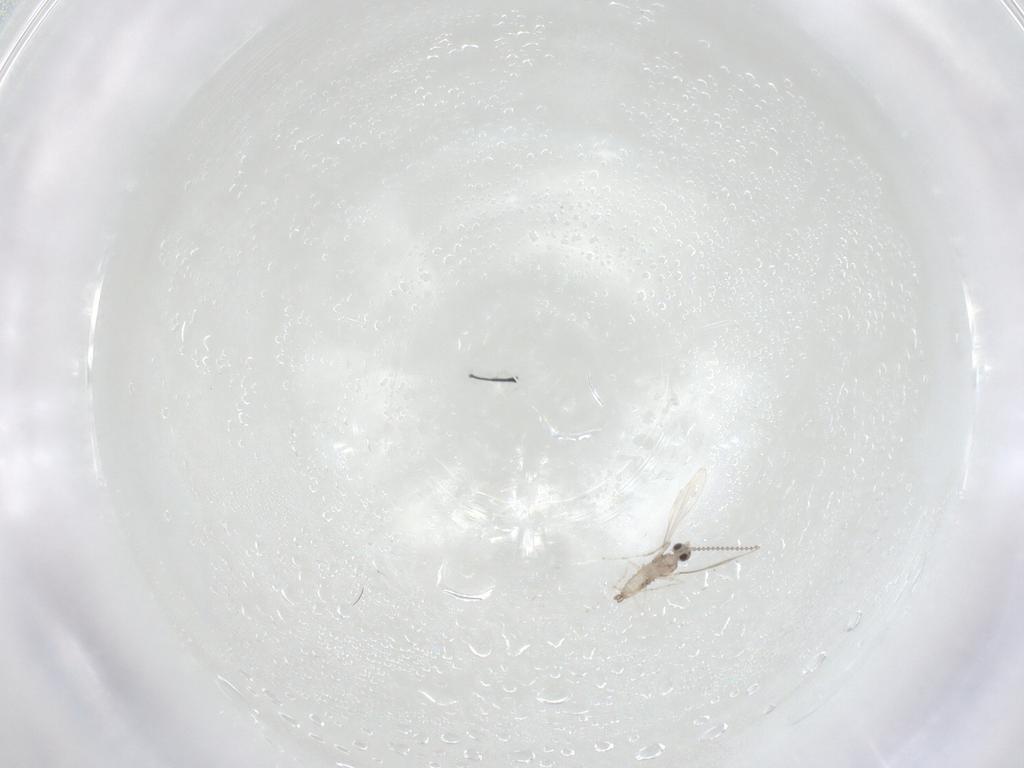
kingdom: Animalia
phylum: Arthropoda
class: Insecta
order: Diptera
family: Cecidomyiidae
